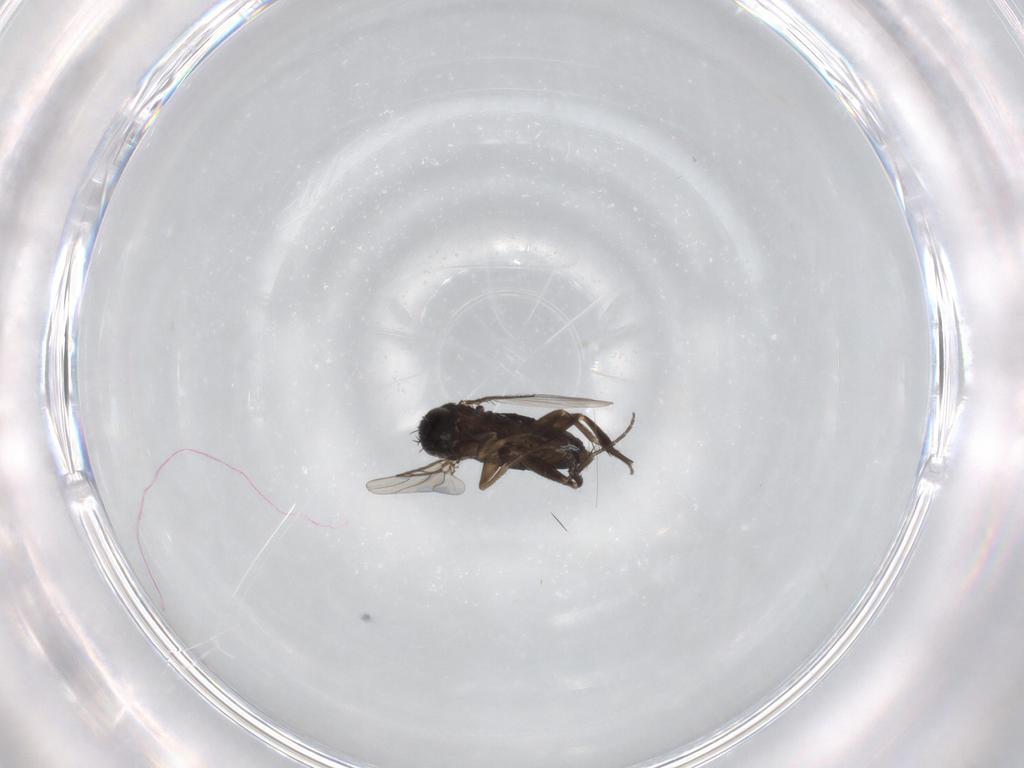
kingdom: Animalia
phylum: Arthropoda
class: Insecta
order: Diptera
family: Phoridae
